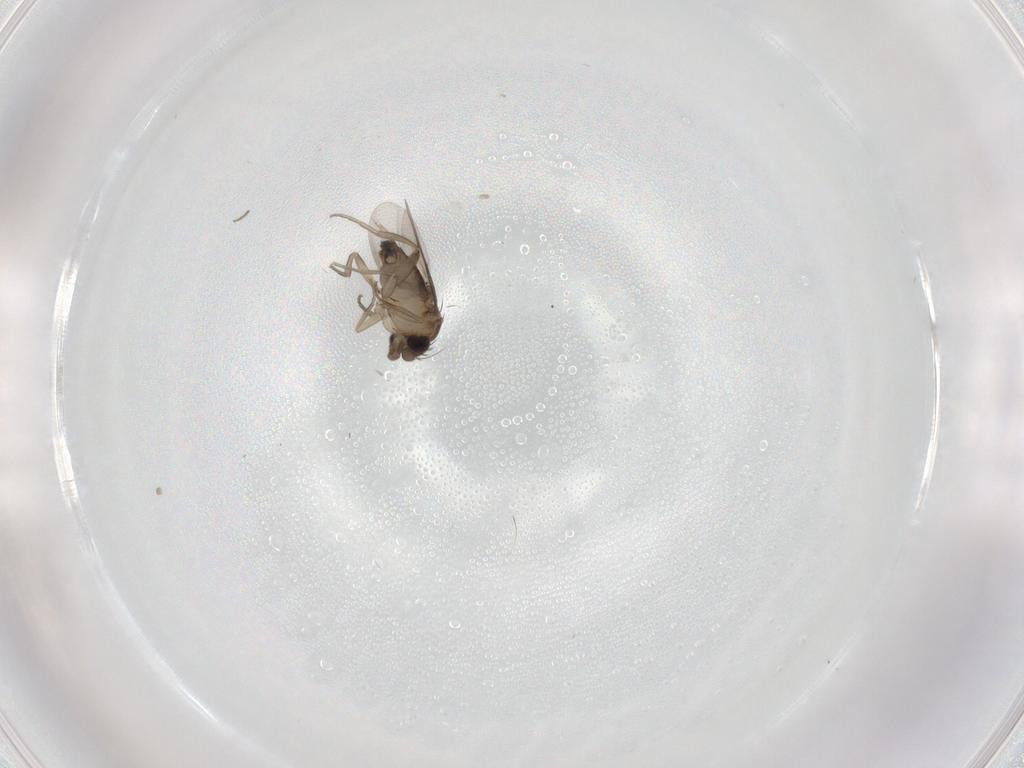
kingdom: Animalia
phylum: Arthropoda
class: Insecta
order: Diptera
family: Phoridae
